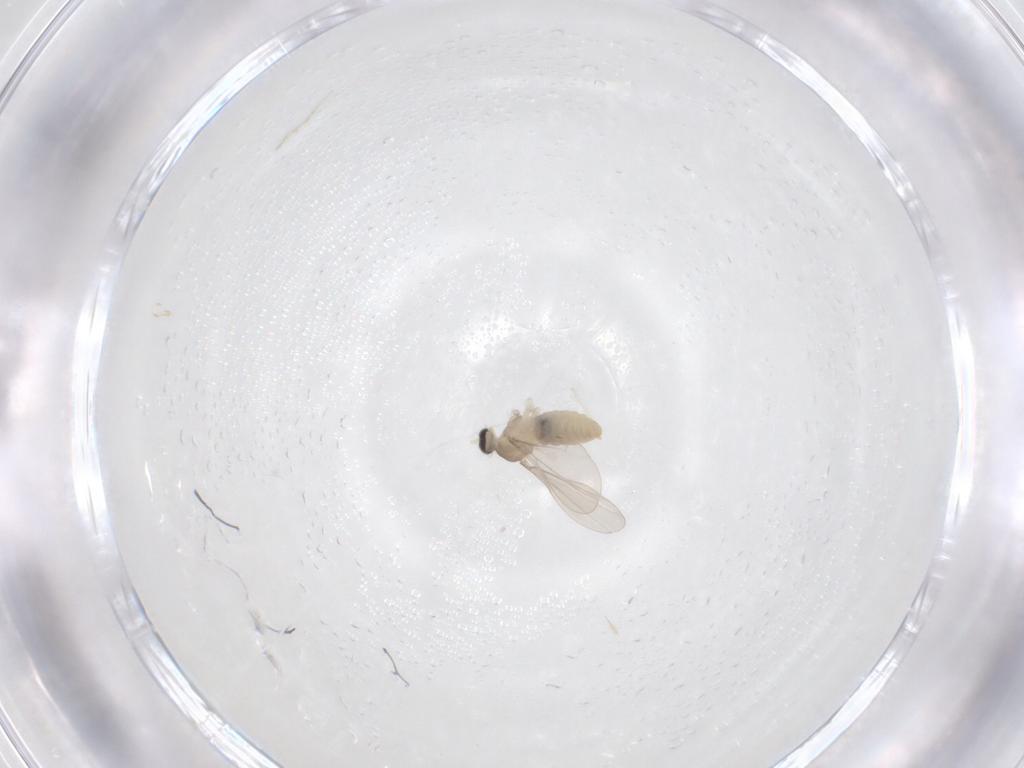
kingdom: Animalia
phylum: Arthropoda
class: Insecta
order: Diptera
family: Cecidomyiidae
